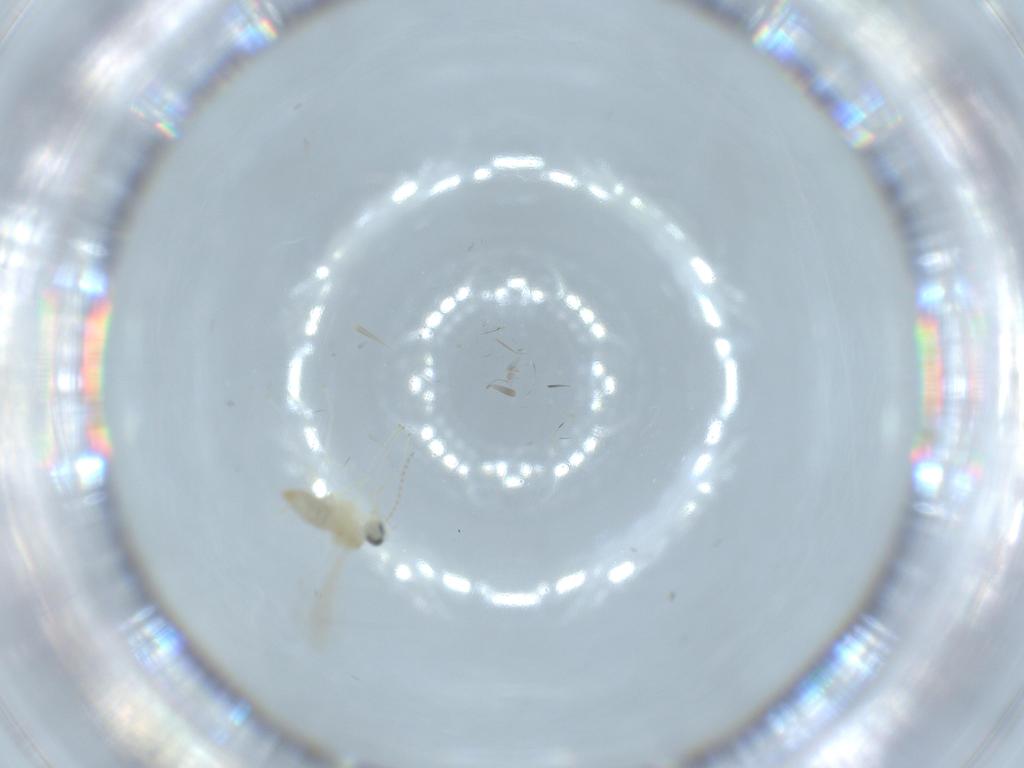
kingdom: Animalia
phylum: Arthropoda
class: Insecta
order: Diptera
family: Cecidomyiidae
